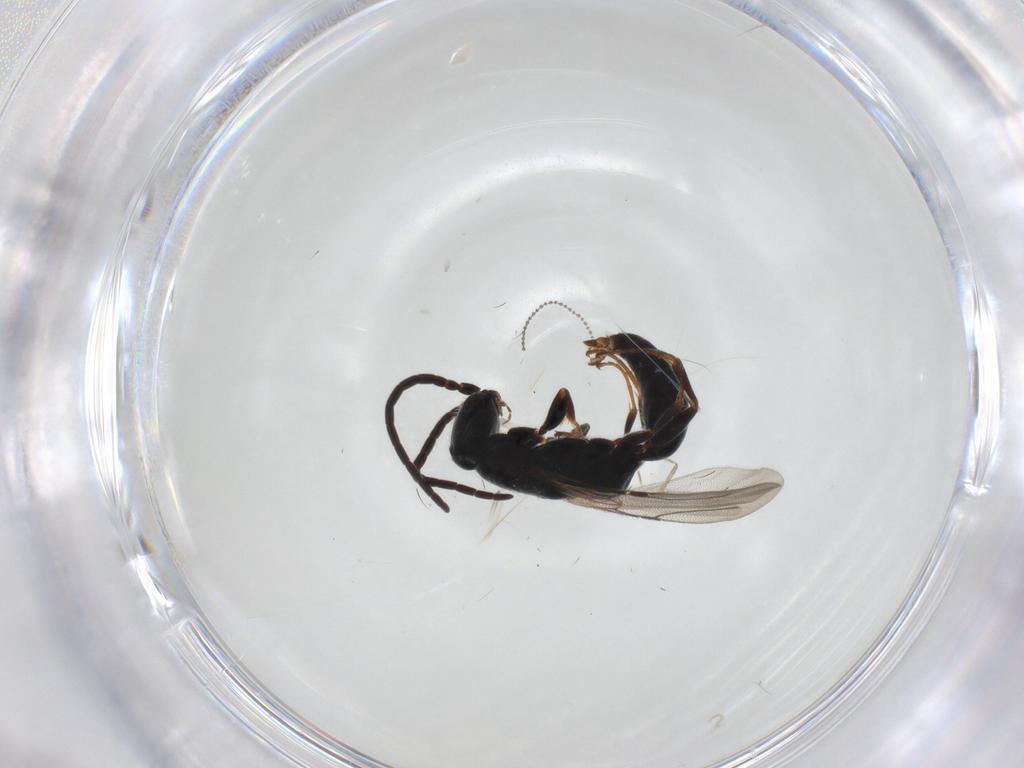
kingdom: Animalia
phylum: Arthropoda
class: Insecta
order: Hymenoptera
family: Bethylidae
